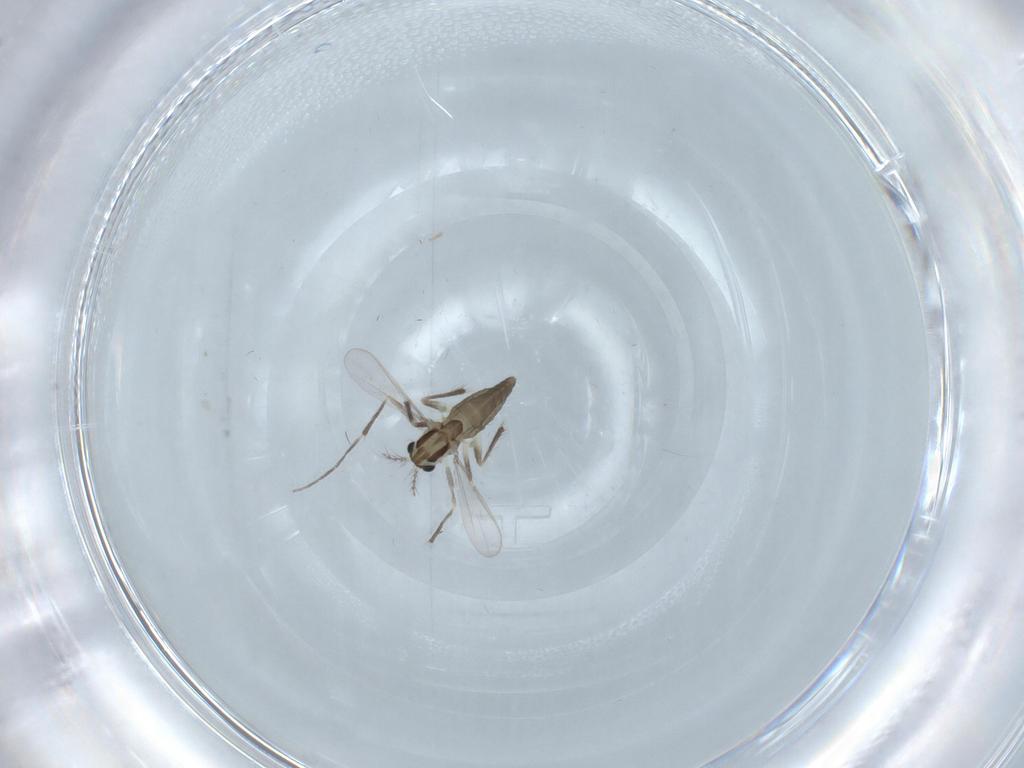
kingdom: Animalia
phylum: Arthropoda
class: Insecta
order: Diptera
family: Chironomidae
